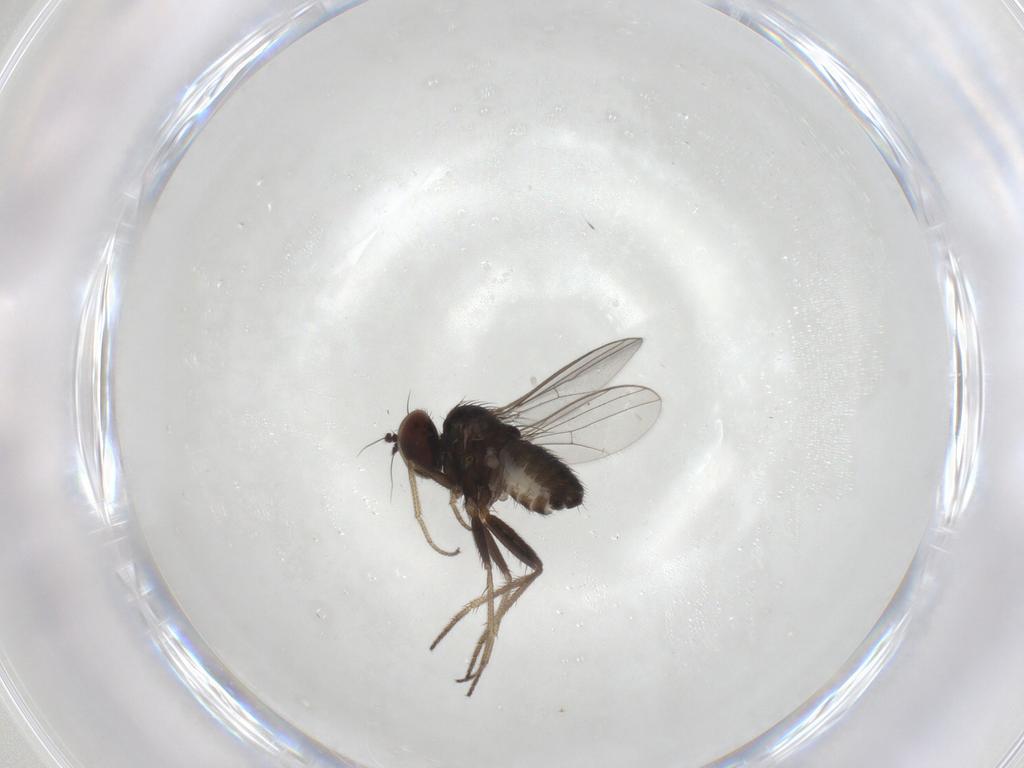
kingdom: Animalia
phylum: Arthropoda
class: Insecta
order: Diptera
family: Dolichopodidae
